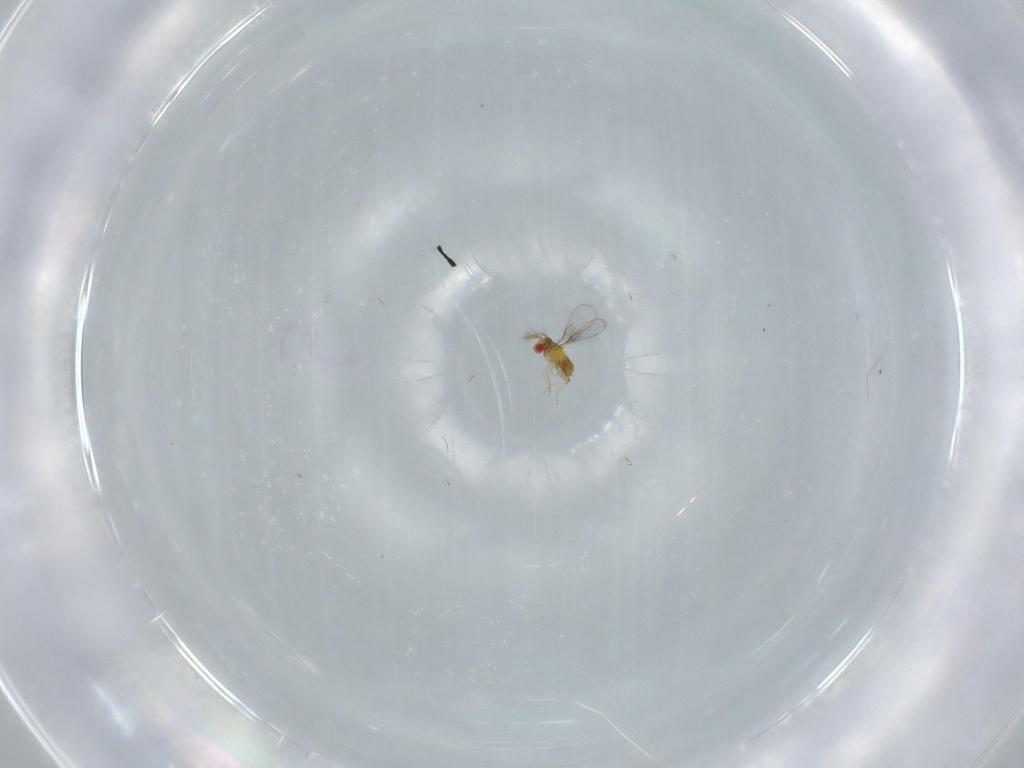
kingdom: Animalia
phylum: Arthropoda
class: Insecta
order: Hymenoptera
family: Trichogrammatidae
